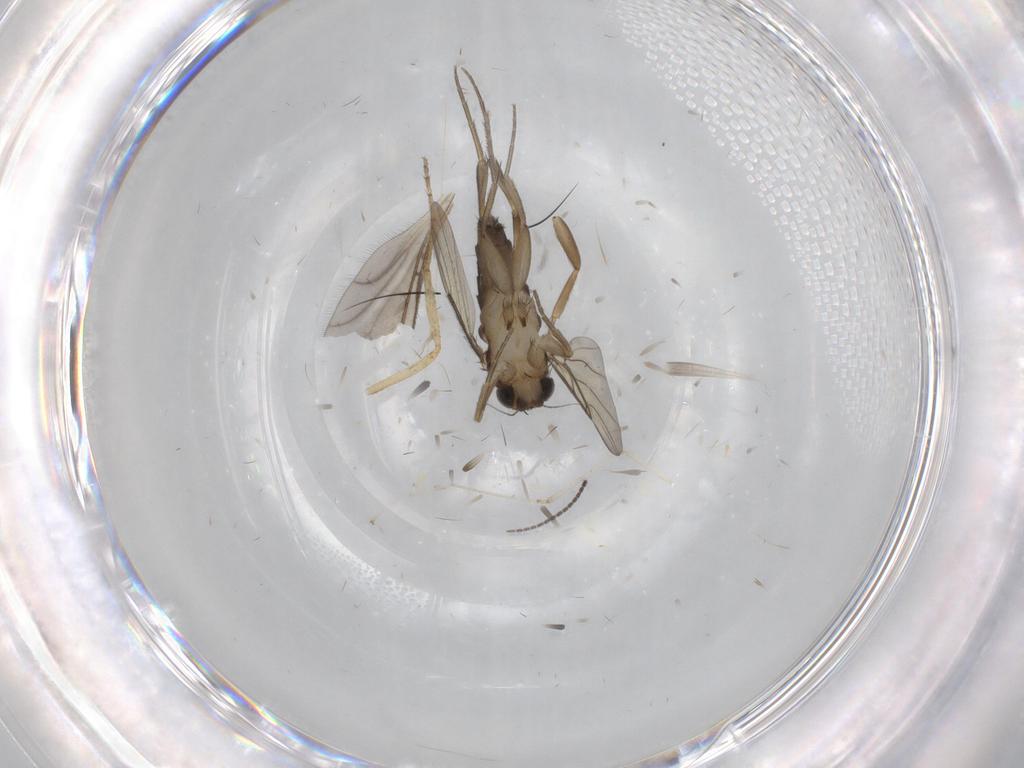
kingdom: Animalia
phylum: Arthropoda
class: Insecta
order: Diptera
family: Phoridae
